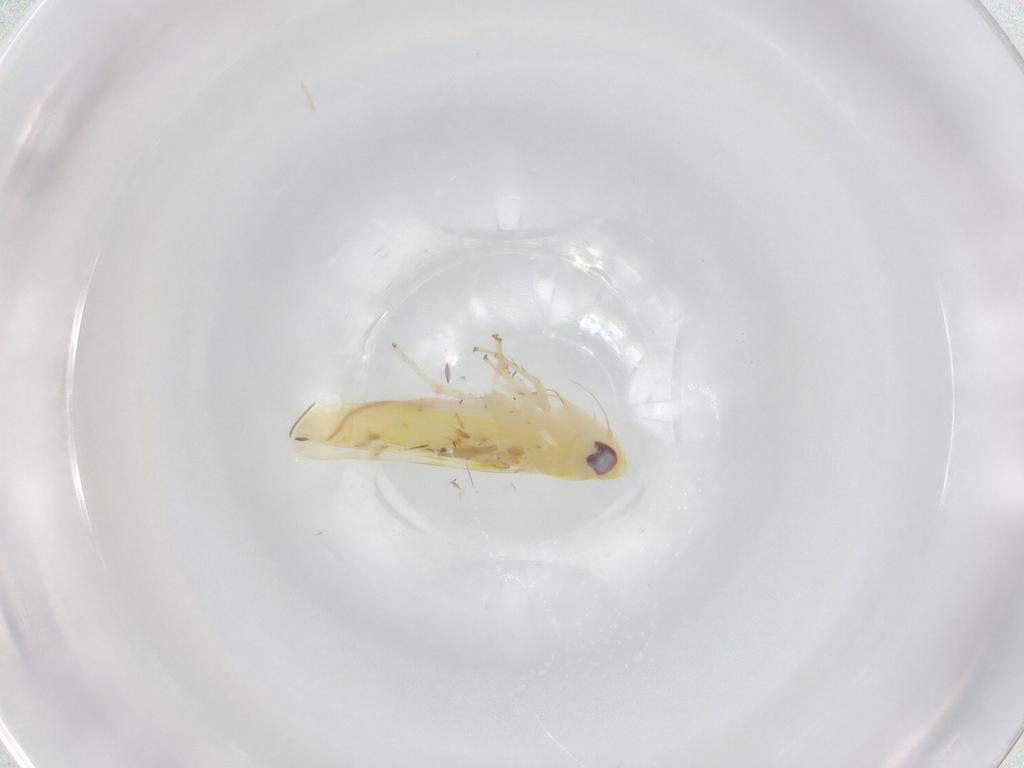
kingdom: Animalia
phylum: Arthropoda
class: Insecta
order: Hemiptera
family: Cicadellidae
